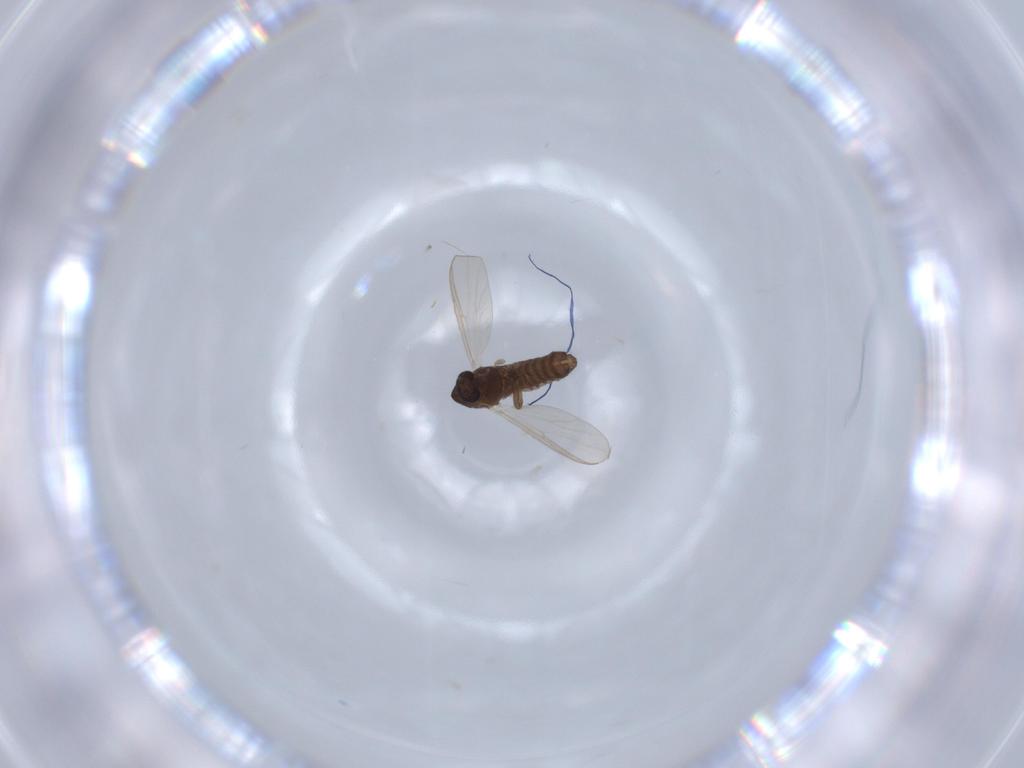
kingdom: Animalia
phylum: Arthropoda
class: Insecta
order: Diptera
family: Chironomidae
